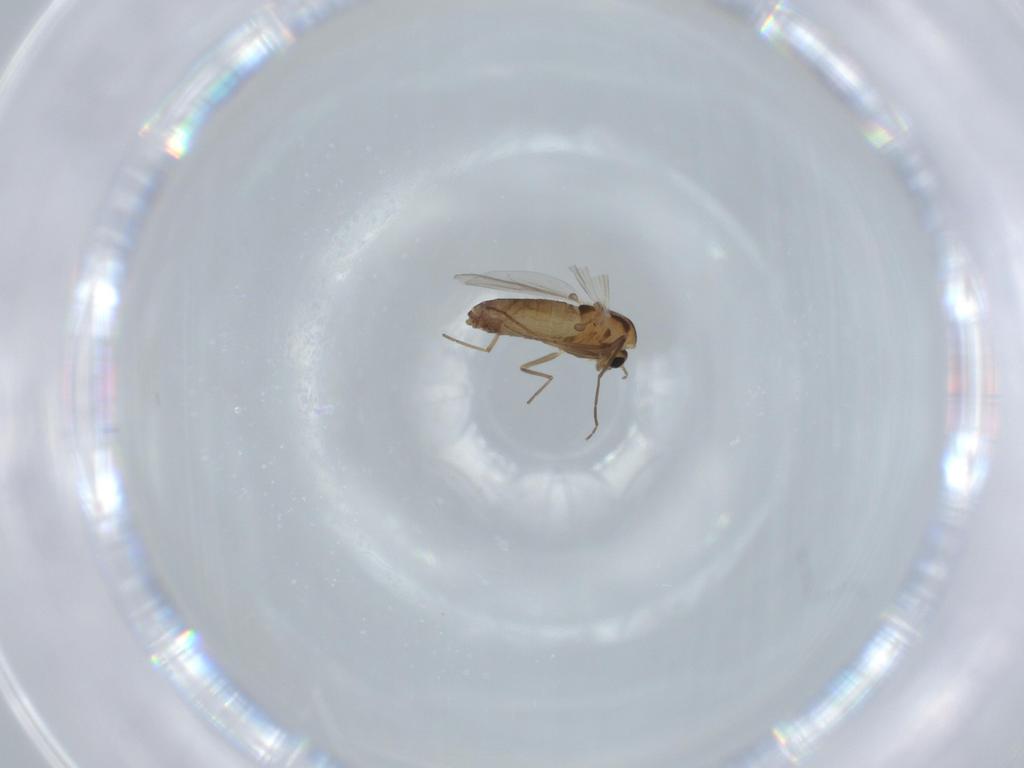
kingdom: Animalia
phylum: Arthropoda
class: Insecta
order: Diptera
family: Chironomidae
